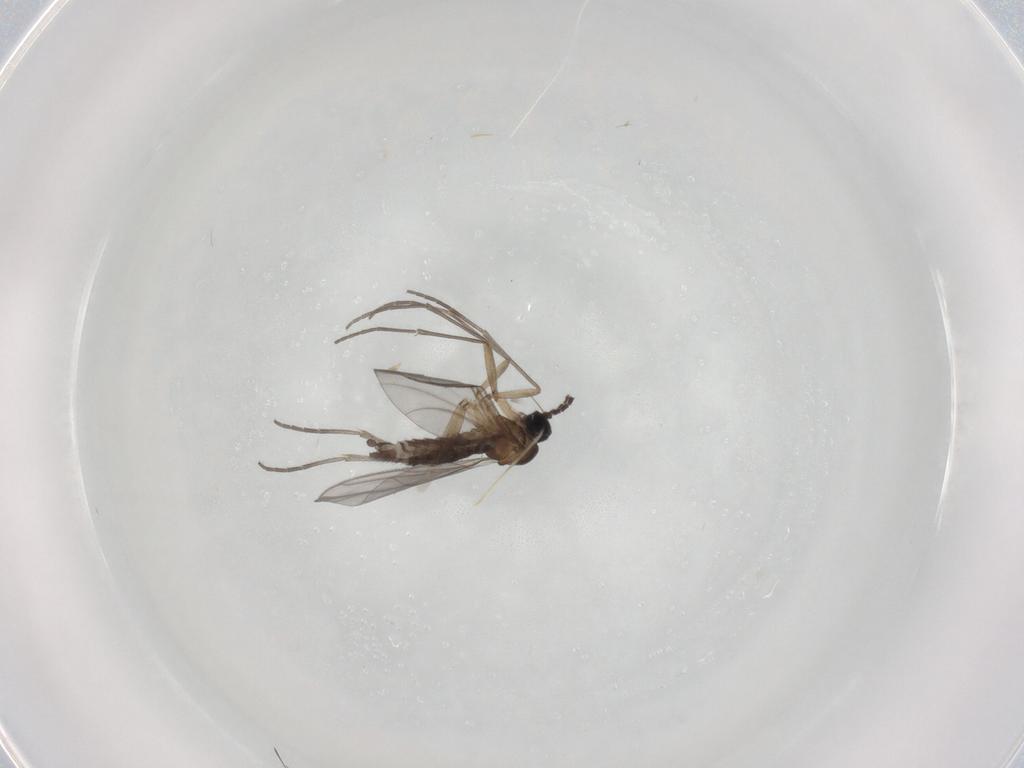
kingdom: Animalia
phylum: Arthropoda
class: Insecta
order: Diptera
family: Sciaridae
